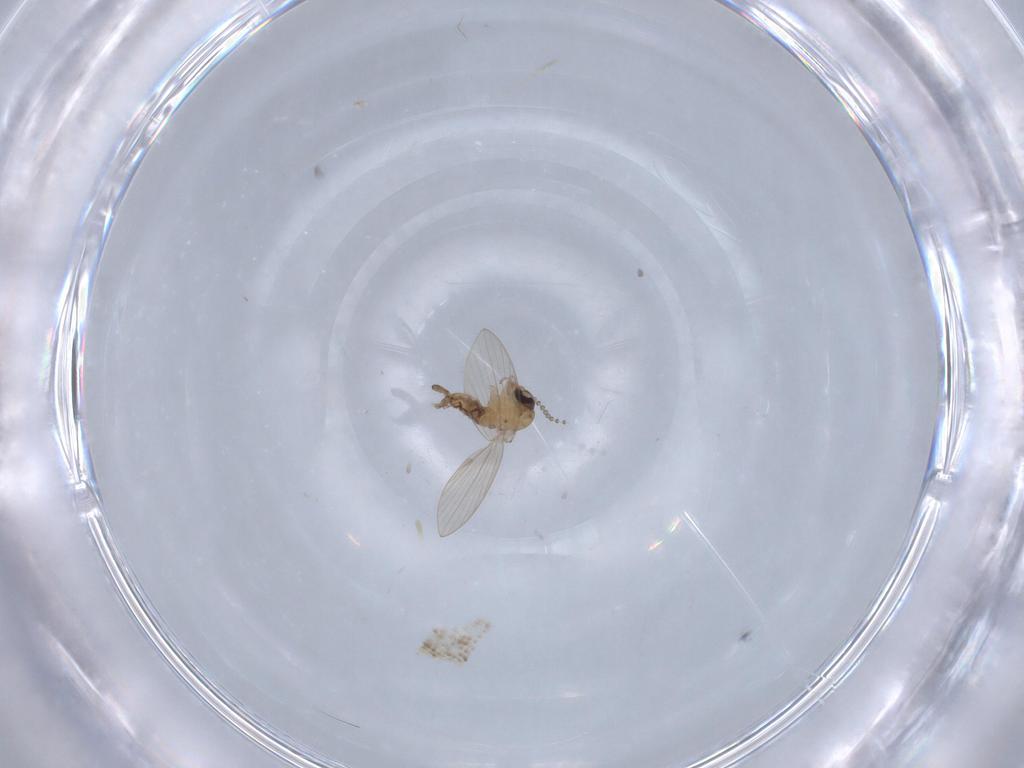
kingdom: Animalia
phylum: Arthropoda
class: Insecta
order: Diptera
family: Psychodidae
